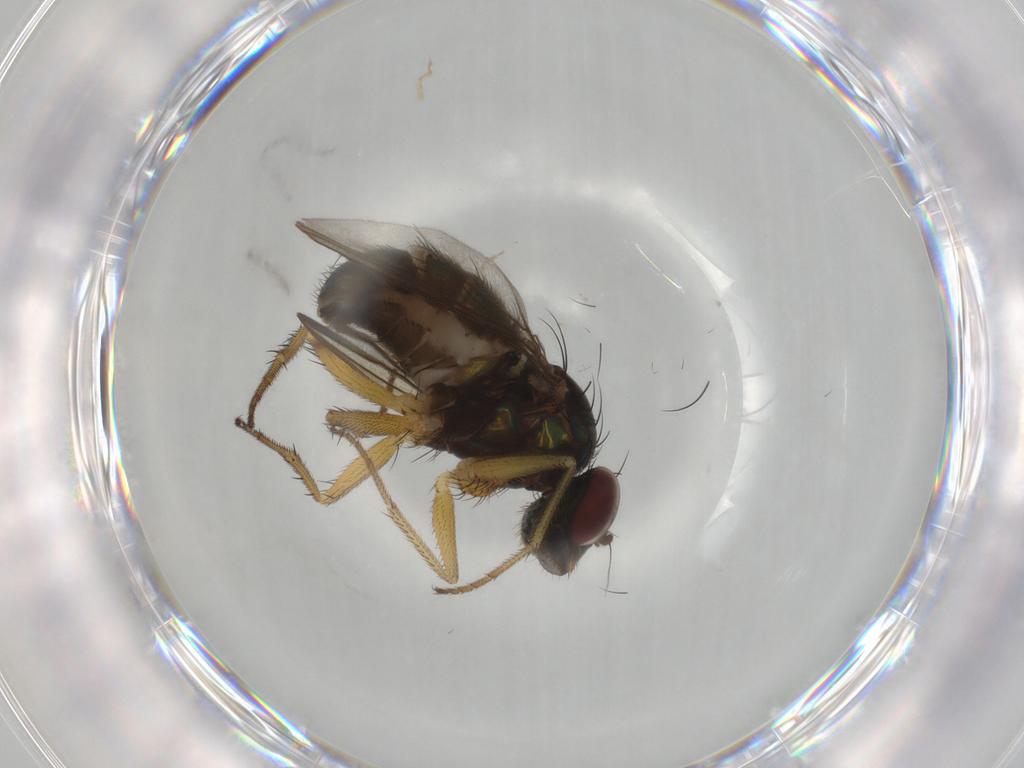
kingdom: Animalia
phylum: Arthropoda
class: Insecta
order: Diptera
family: Dolichopodidae
